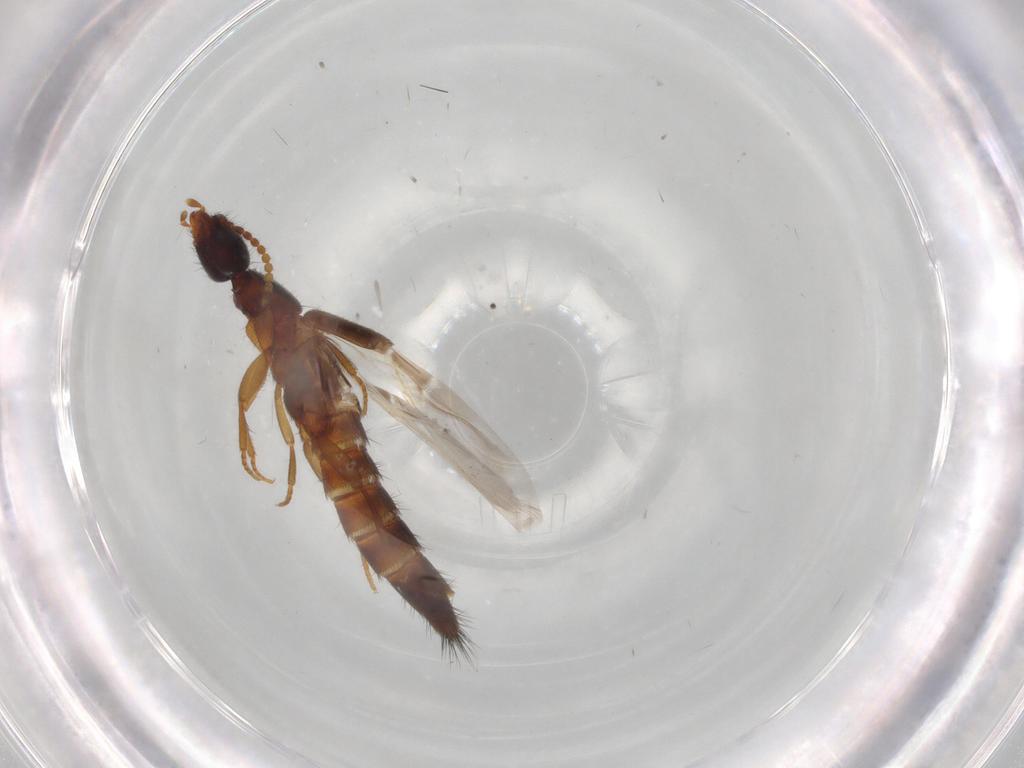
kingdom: Animalia
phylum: Arthropoda
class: Insecta
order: Coleoptera
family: Staphylinidae
